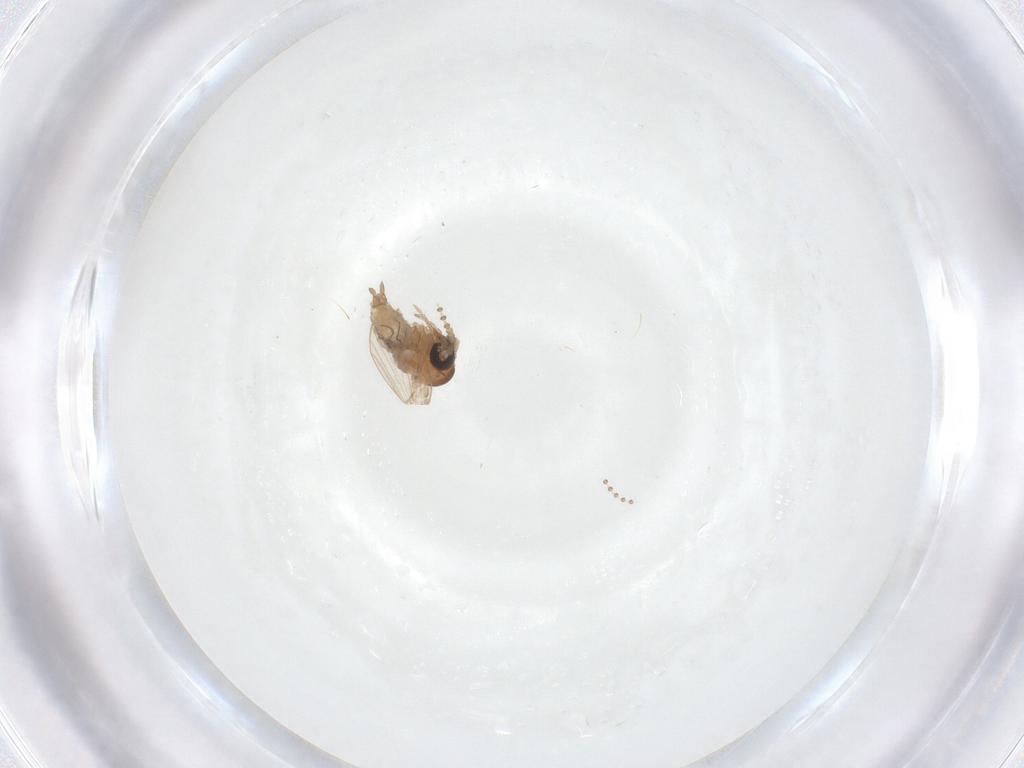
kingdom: Animalia
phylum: Arthropoda
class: Insecta
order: Diptera
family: Psychodidae
